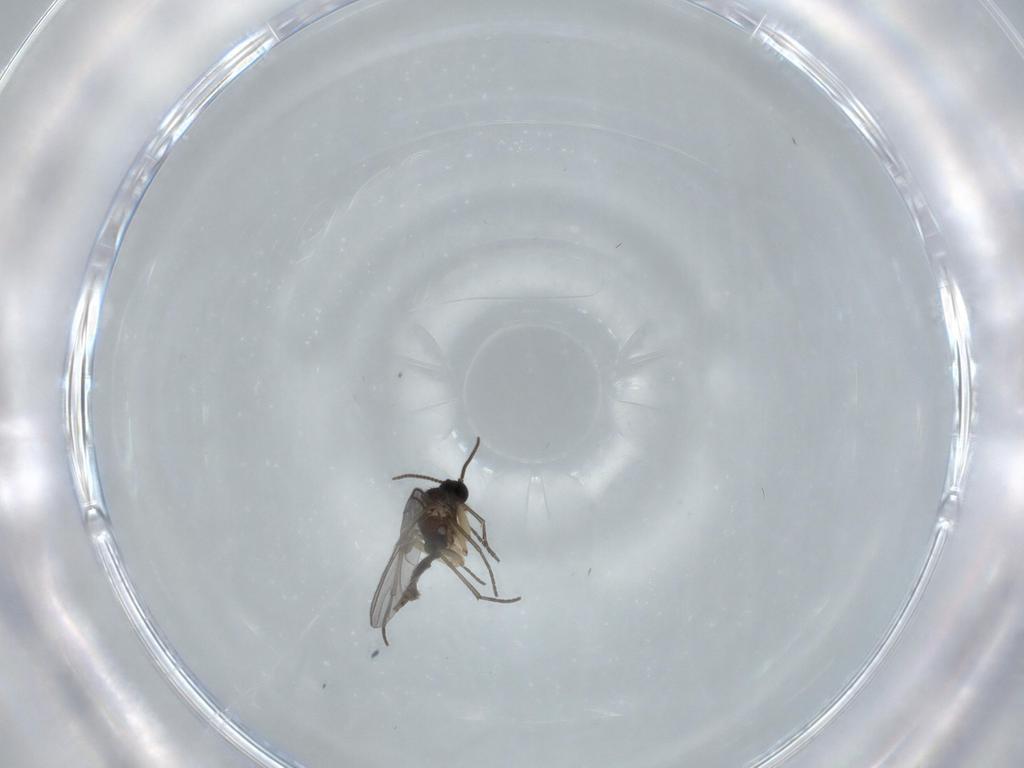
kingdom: Animalia
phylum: Arthropoda
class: Insecta
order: Diptera
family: Sciaridae
